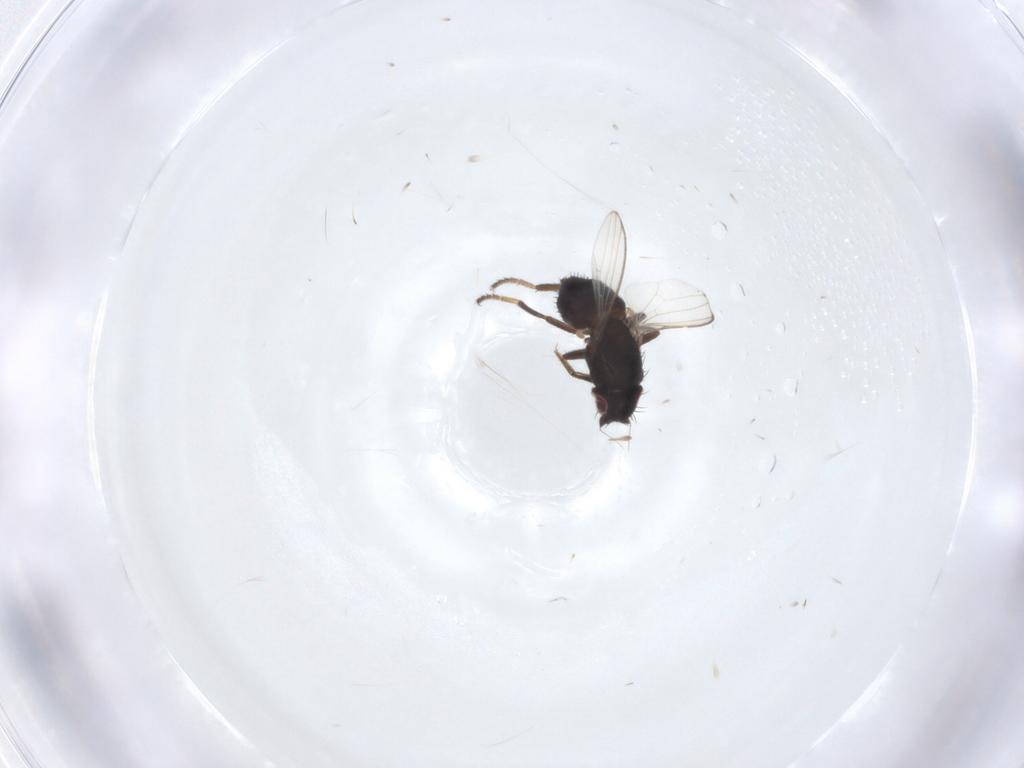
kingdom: Animalia
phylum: Arthropoda
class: Insecta
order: Diptera
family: Milichiidae
